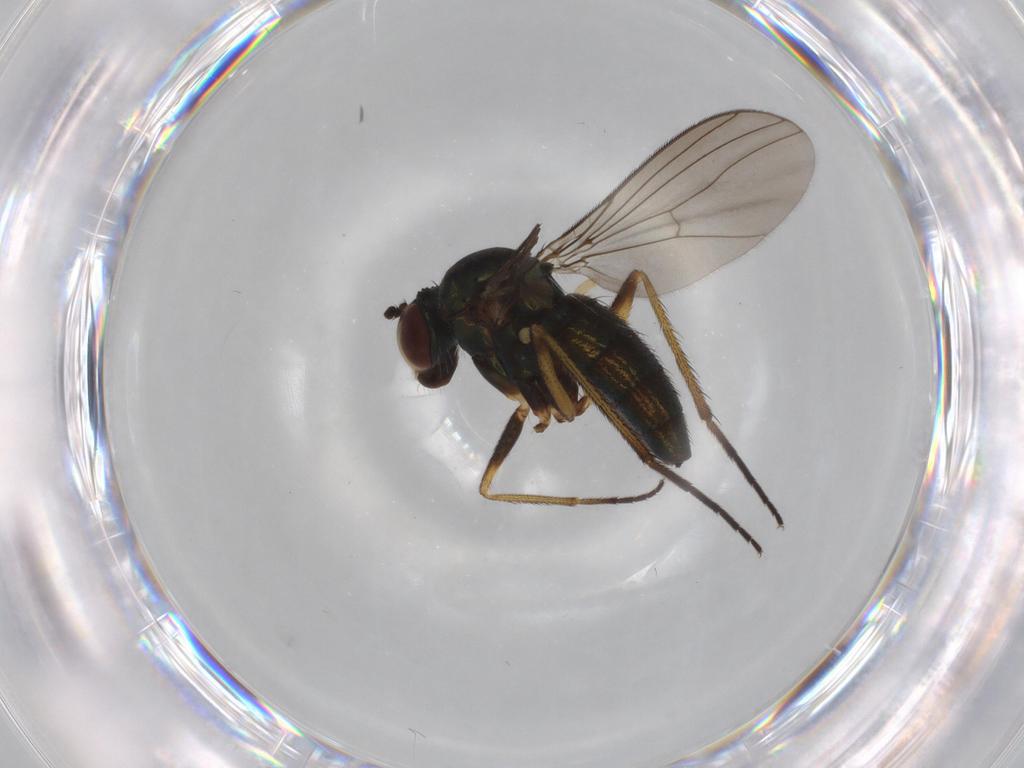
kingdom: Animalia
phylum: Arthropoda
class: Insecta
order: Diptera
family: Dolichopodidae
